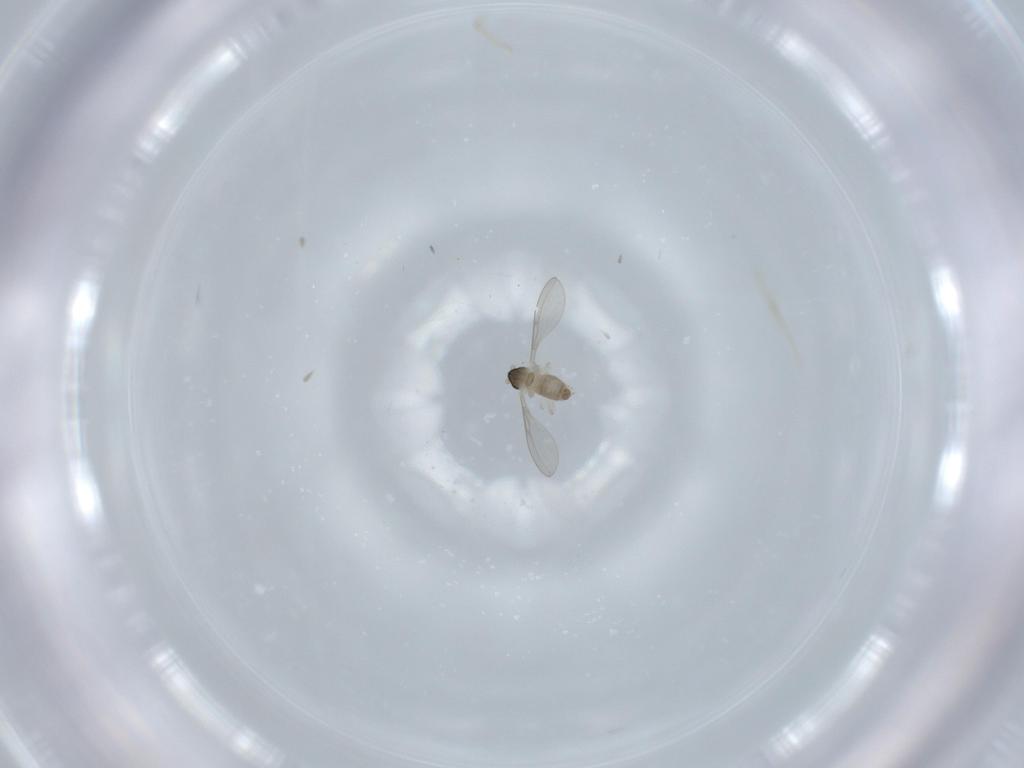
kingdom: Animalia
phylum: Arthropoda
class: Insecta
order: Diptera
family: Cecidomyiidae
